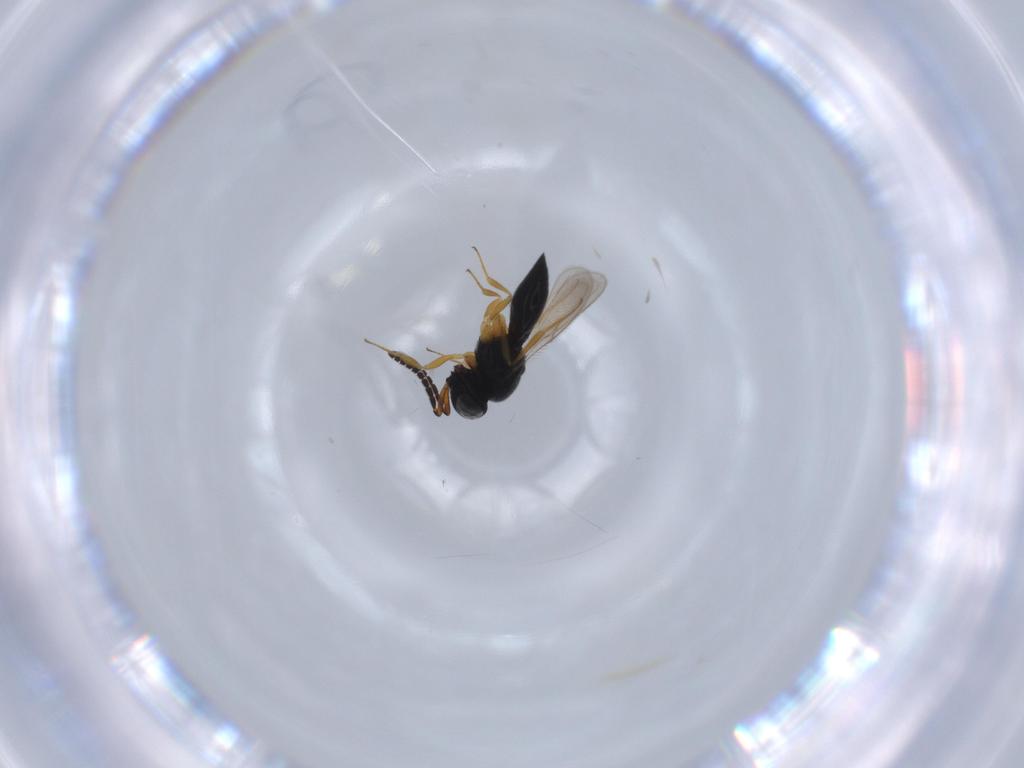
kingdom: Animalia
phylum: Arthropoda
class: Insecta
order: Hymenoptera
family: Scelionidae
